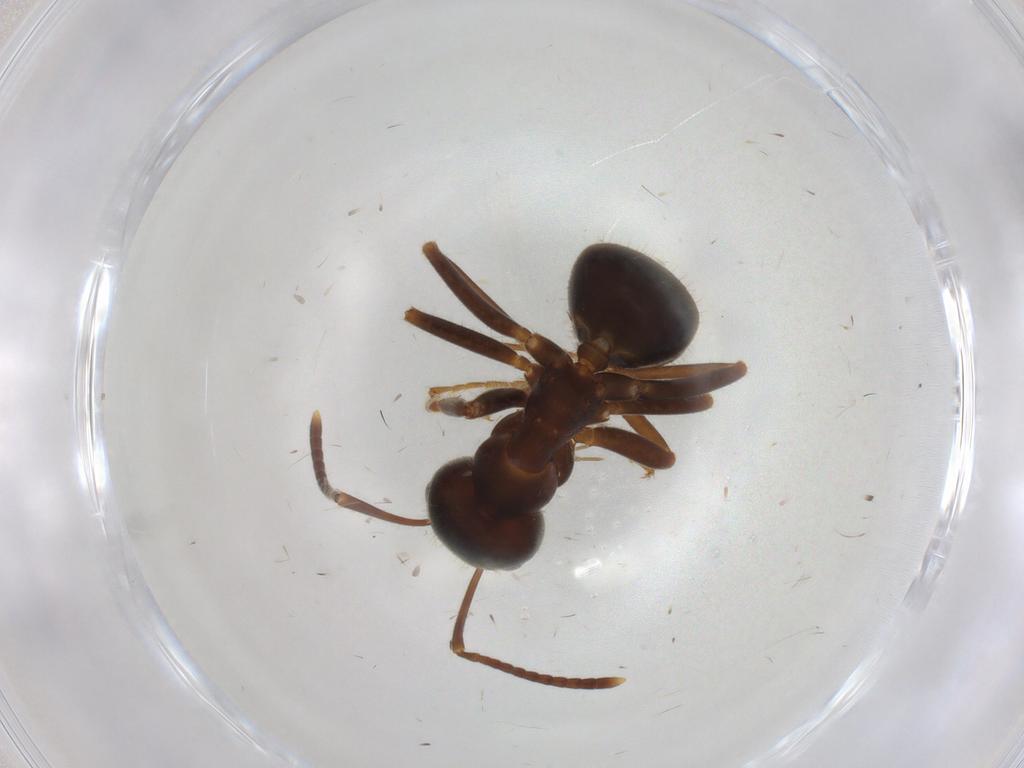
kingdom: Animalia
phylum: Arthropoda
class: Insecta
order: Hymenoptera
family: Formicidae
